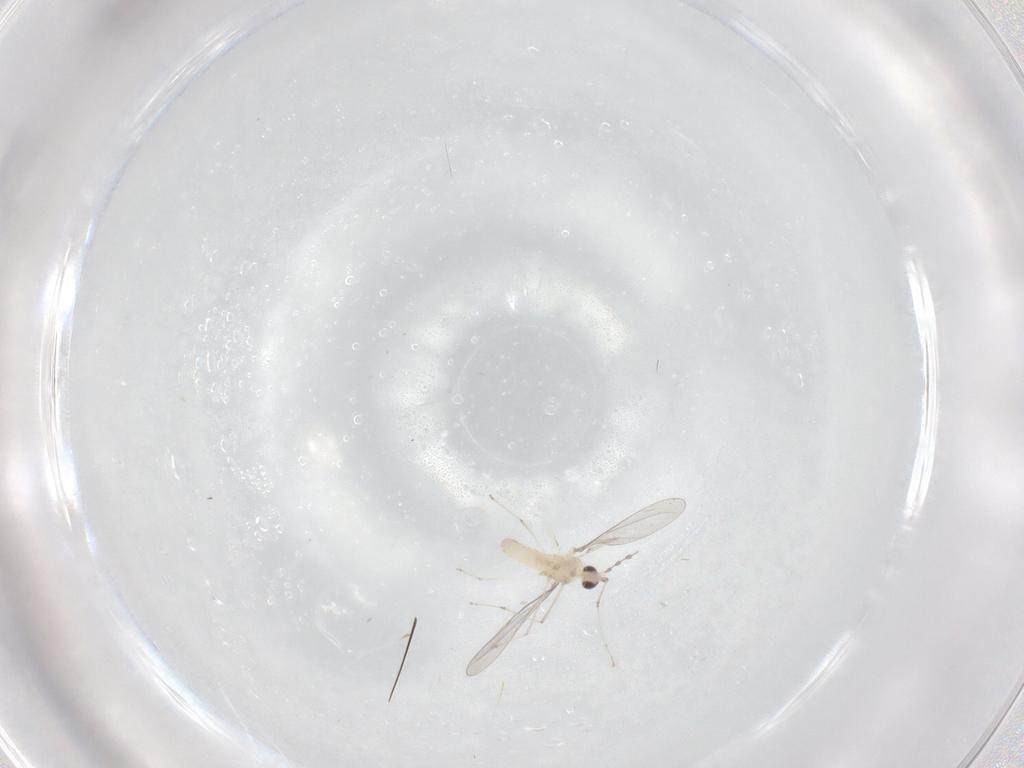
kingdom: Animalia
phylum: Arthropoda
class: Insecta
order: Diptera
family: Cecidomyiidae
